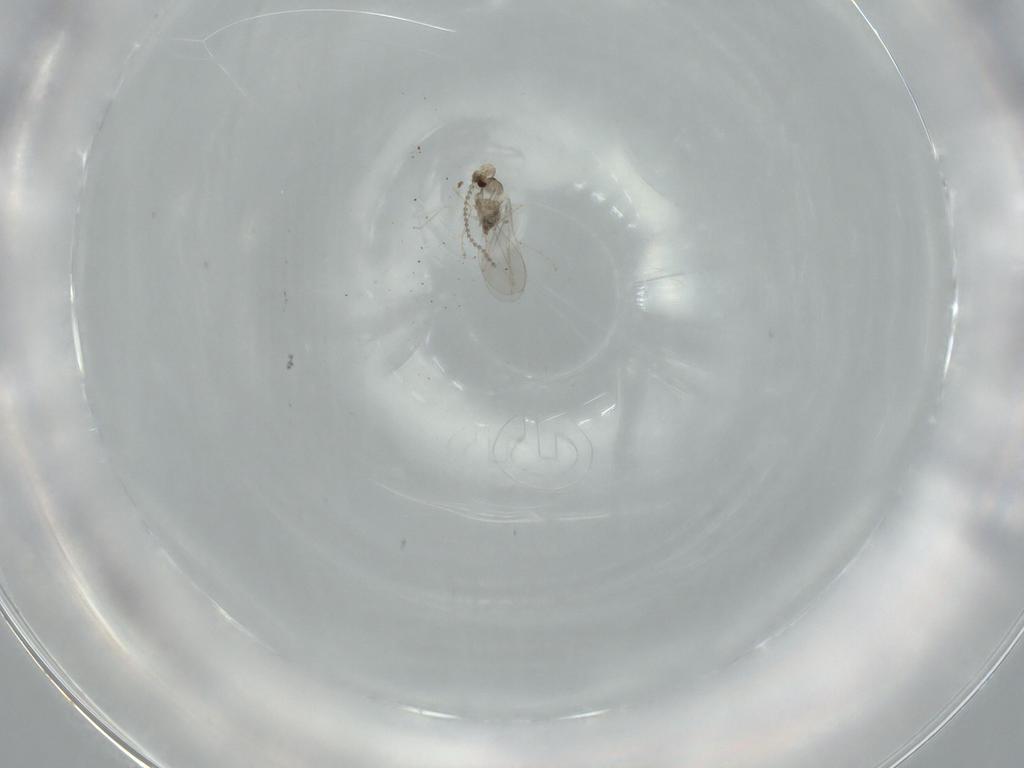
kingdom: Animalia
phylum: Arthropoda
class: Insecta
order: Diptera
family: Cecidomyiidae
